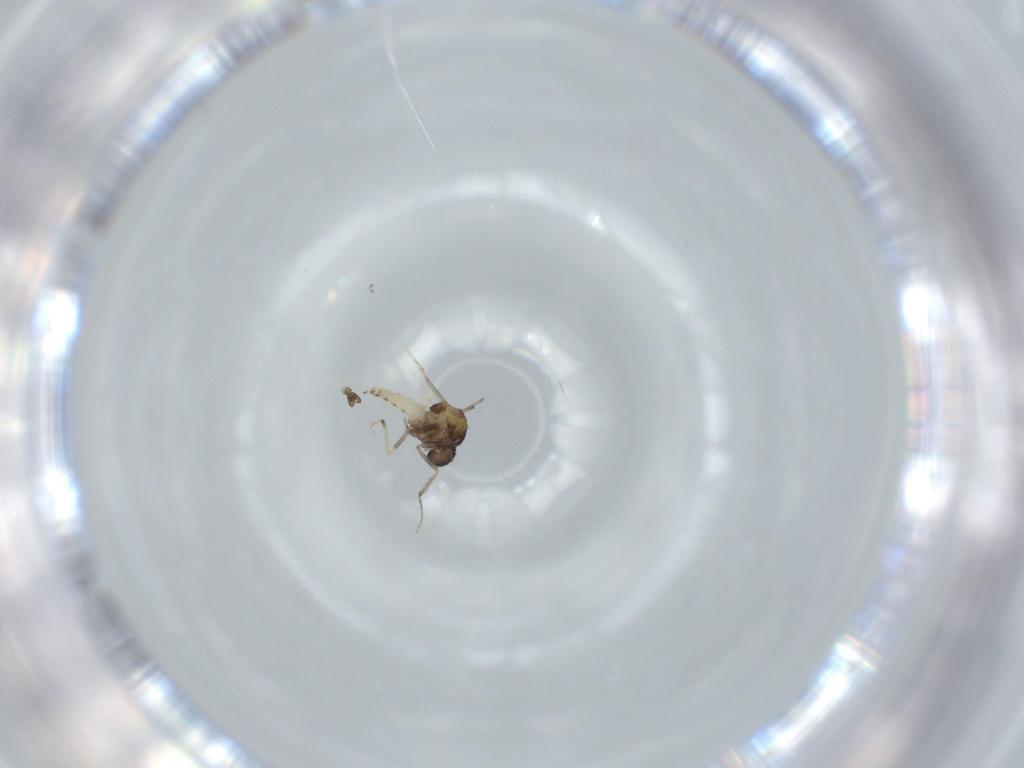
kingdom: Animalia
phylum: Arthropoda
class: Insecta
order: Diptera
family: Ceratopogonidae
